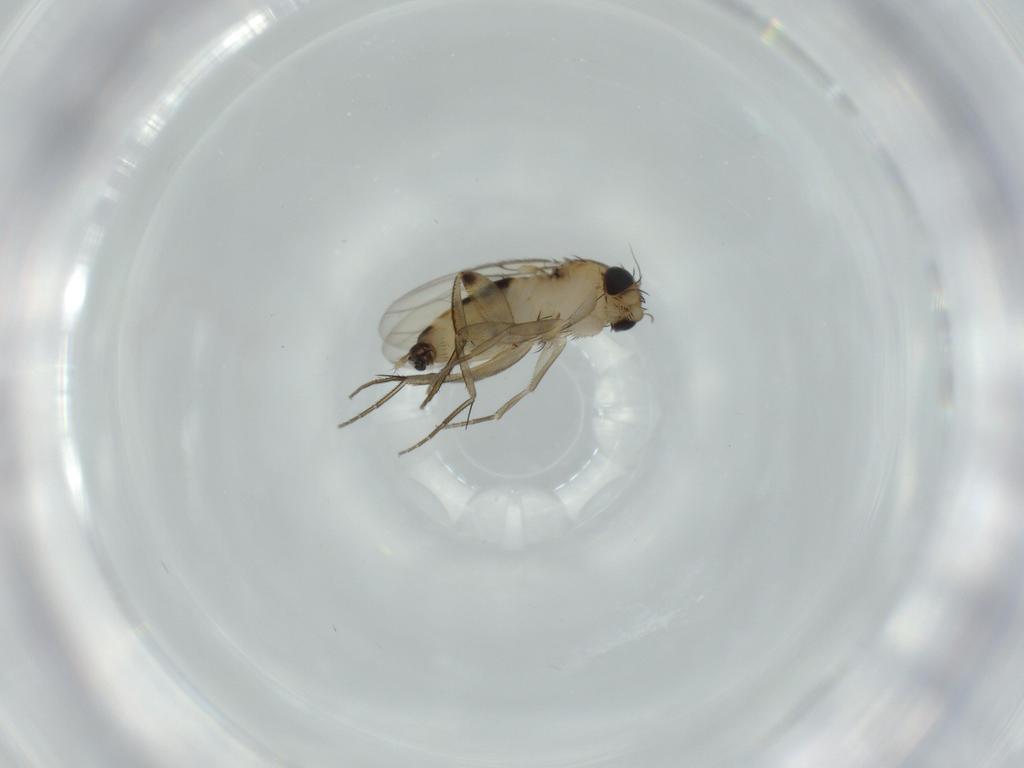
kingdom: Animalia
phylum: Arthropoda
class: Insecta
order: Diptera
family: Phoridae
